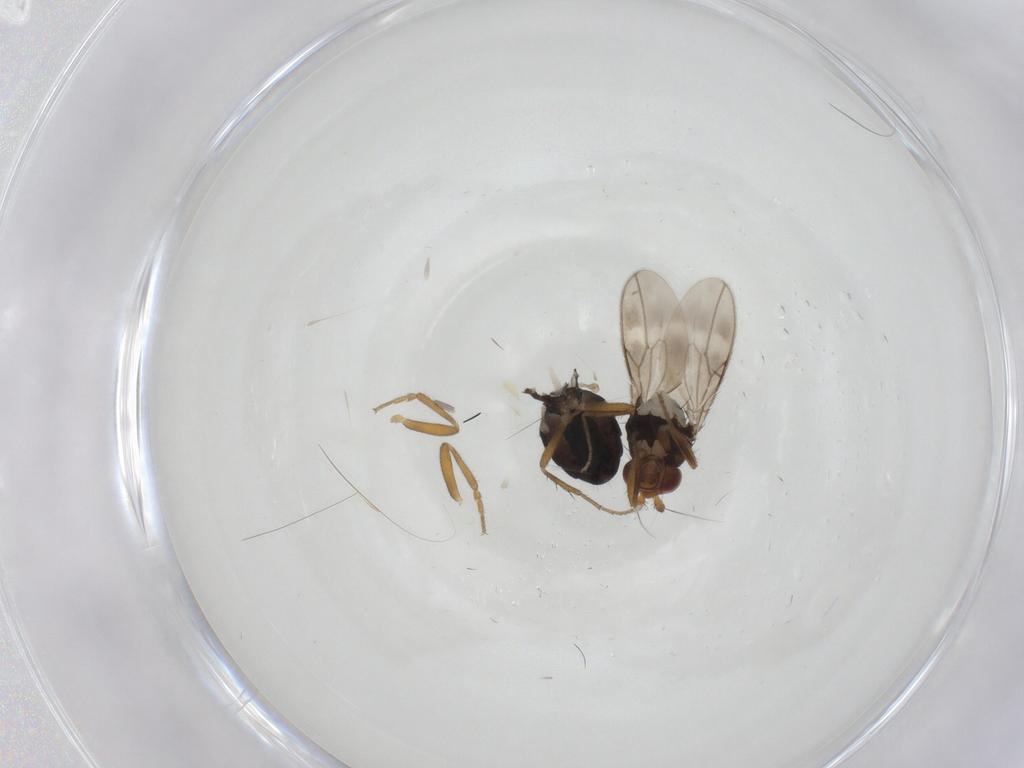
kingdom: Animalia
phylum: Arthropoda
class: Insecta
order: Diptera
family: Sphaeroceridae
